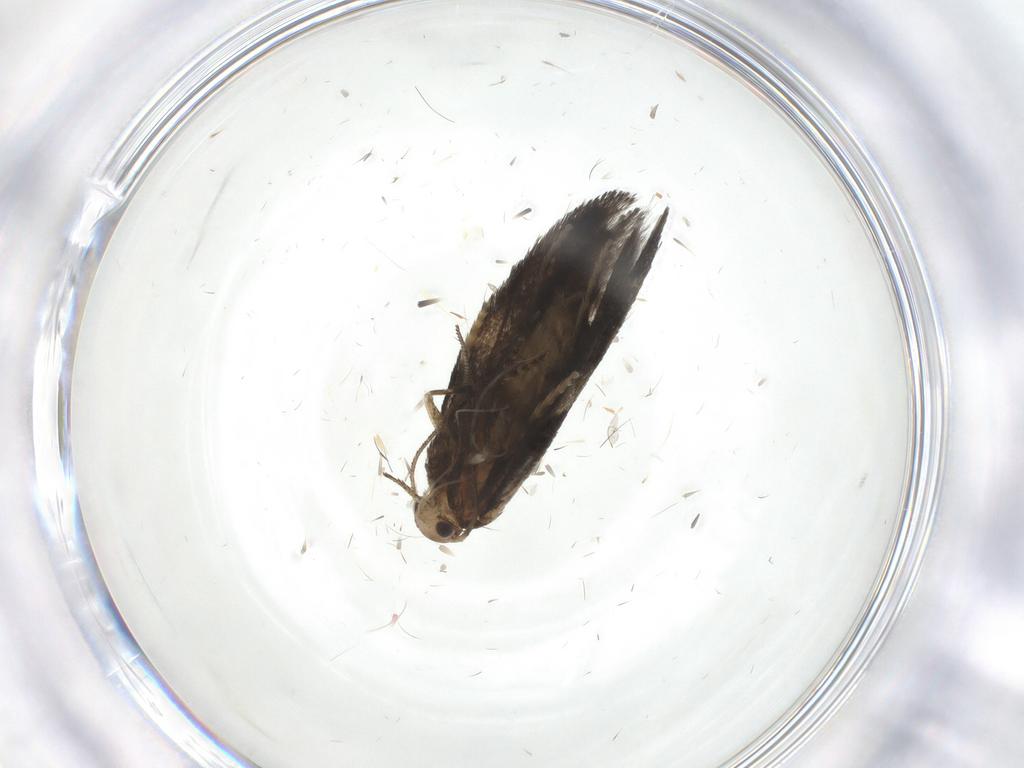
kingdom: Animalia
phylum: Arthropoda
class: Insecta
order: Lepidoptera
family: Pieridae
